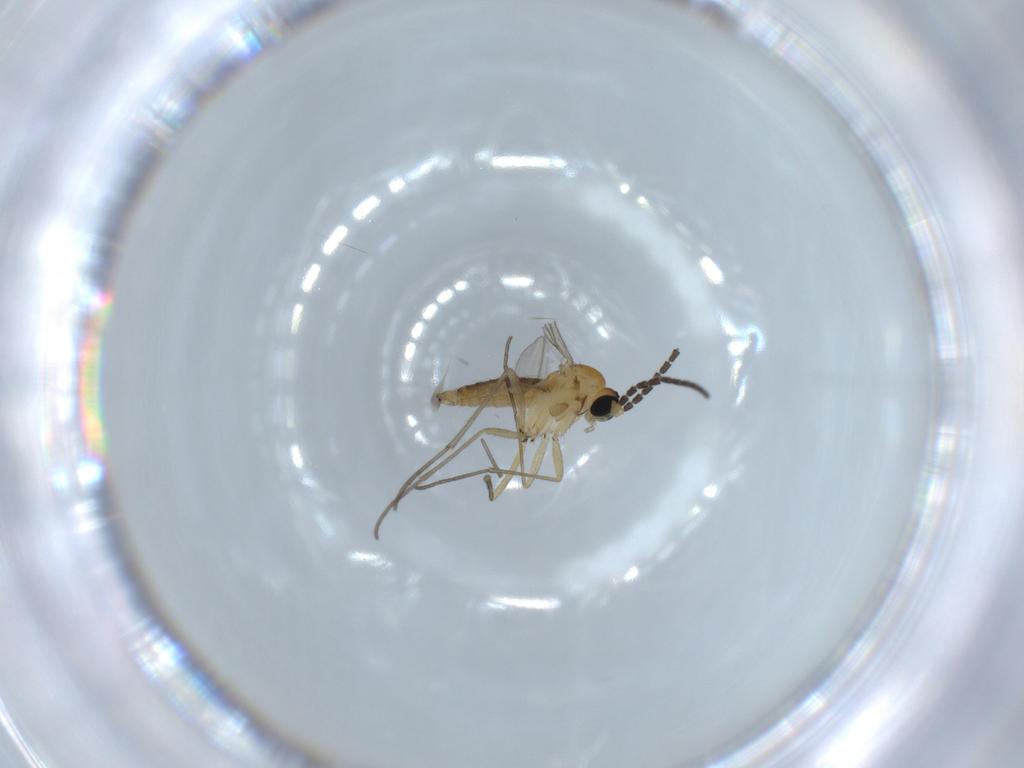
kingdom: Animalia
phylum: Arthropoda
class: Insecta
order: Diptera
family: Sciaridae
